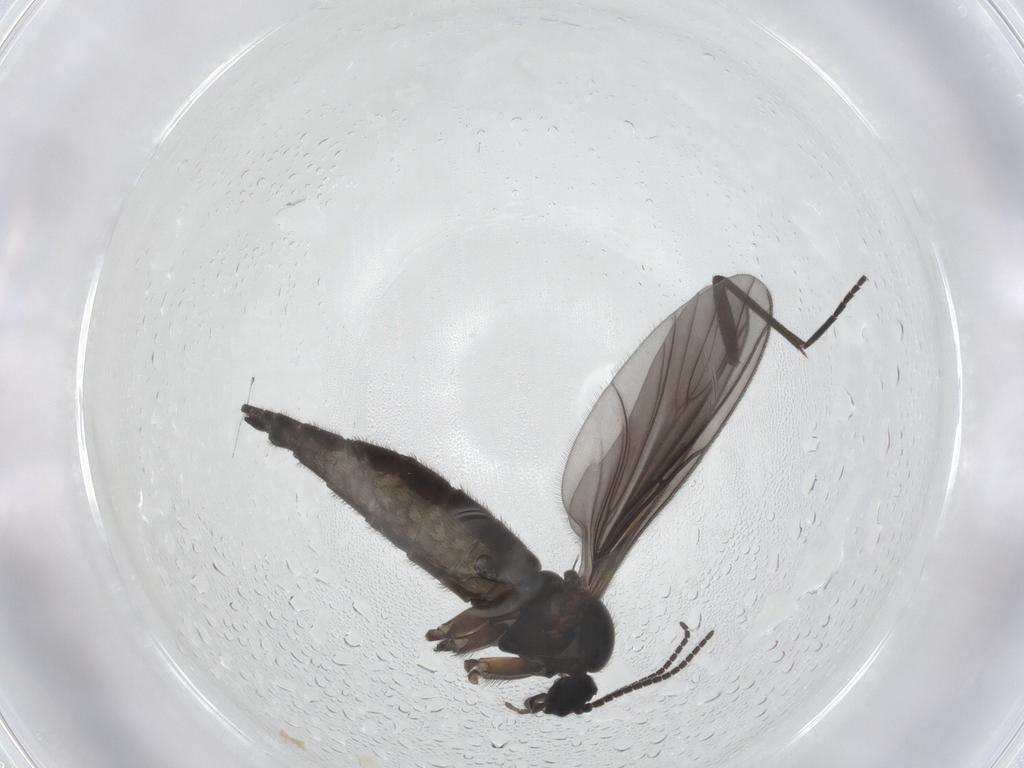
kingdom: Animalia
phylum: Arthropoda
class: Insecta
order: Diptera
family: Sciaridae
